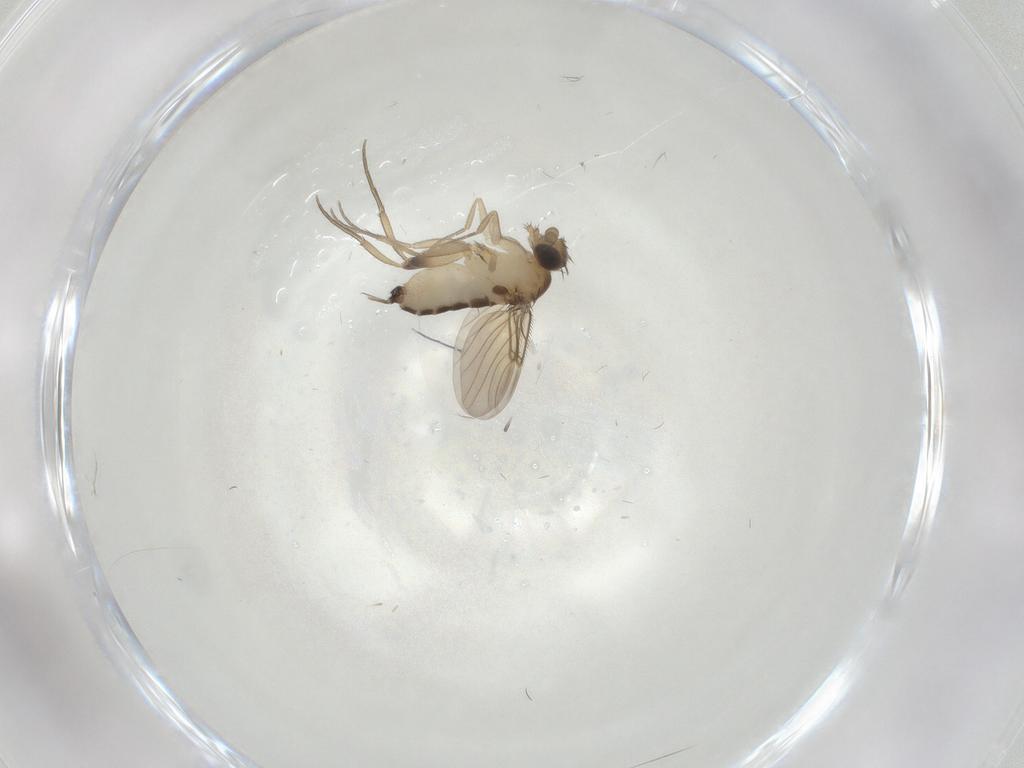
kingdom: Animalia
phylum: Arthropoda
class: Insecta
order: Diptera
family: Phoridae
